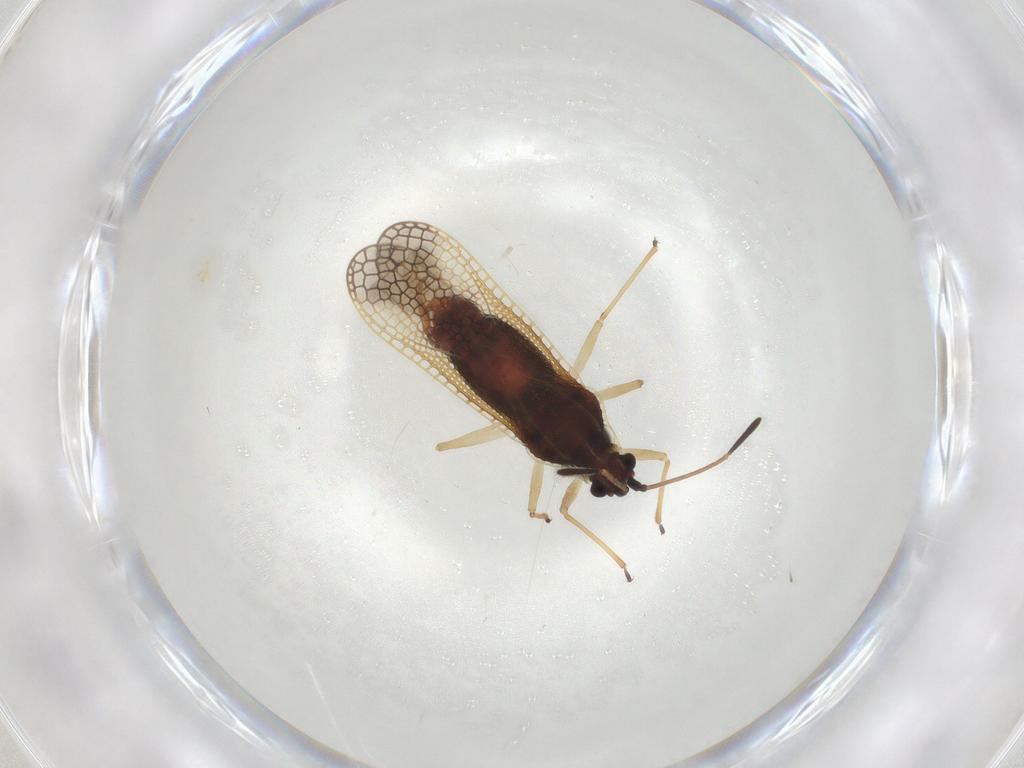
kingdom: Animalia
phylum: Arthropoda
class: Insecta
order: Hemiptera
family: Tingidae
